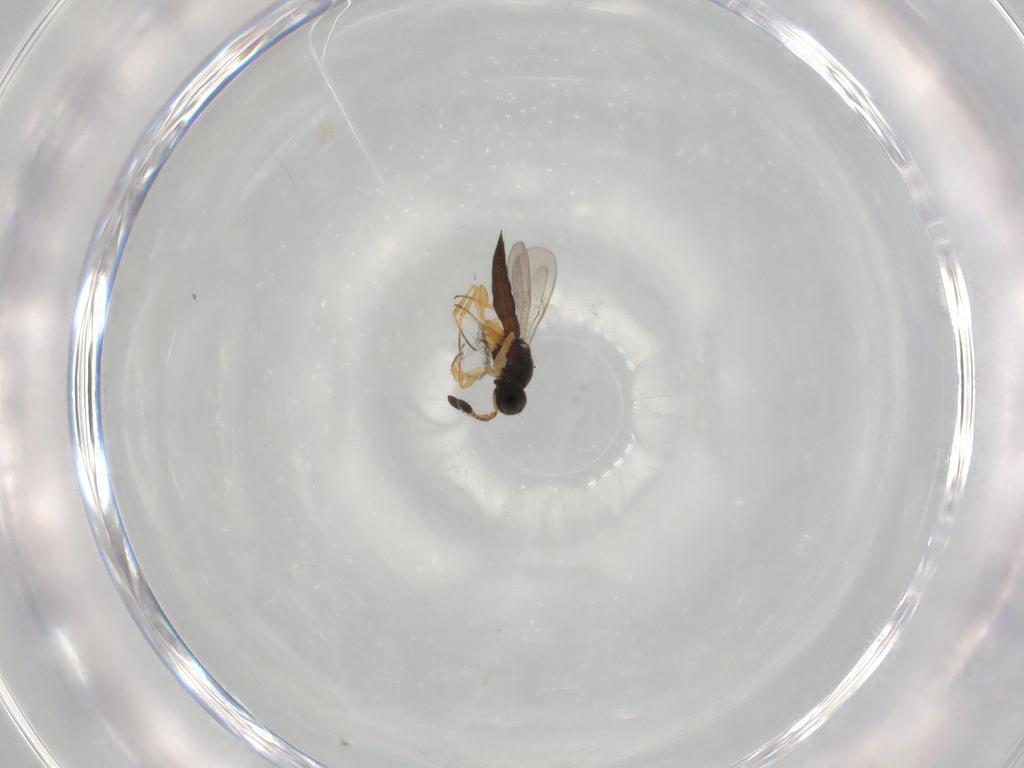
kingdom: Animalia
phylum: Arthropoda
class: Insecta
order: Hymenoptera
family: Scelionidae
